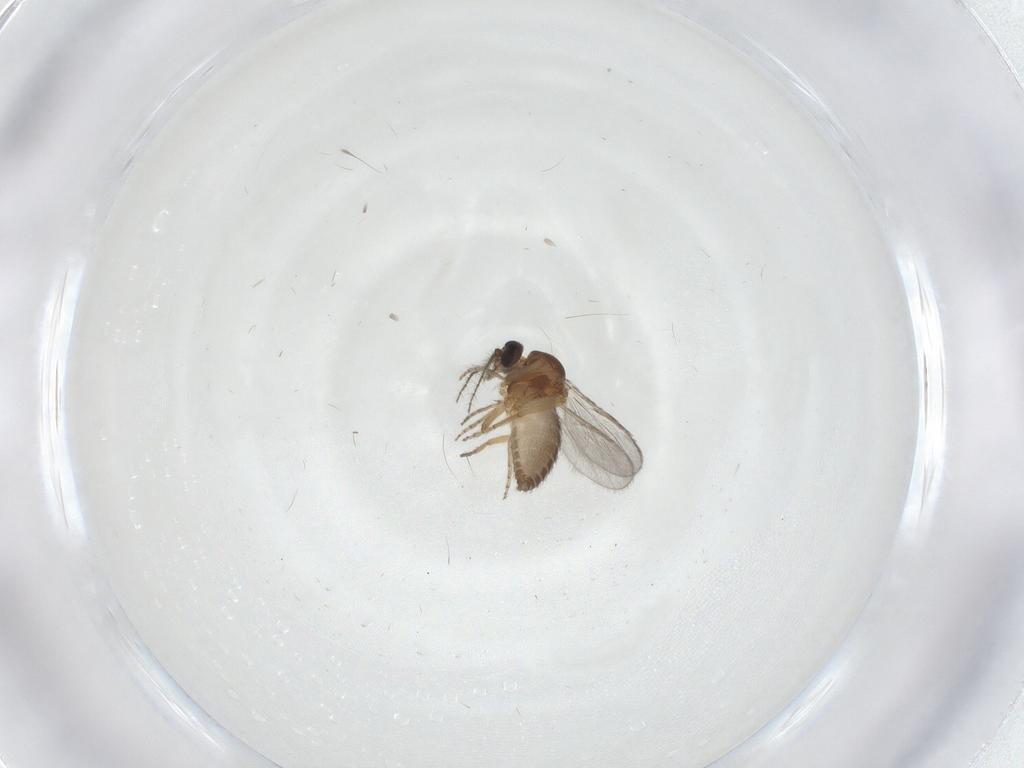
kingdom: Animalia
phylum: Arthropoda
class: Insecta
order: Diptera
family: Ceratopogonidae
